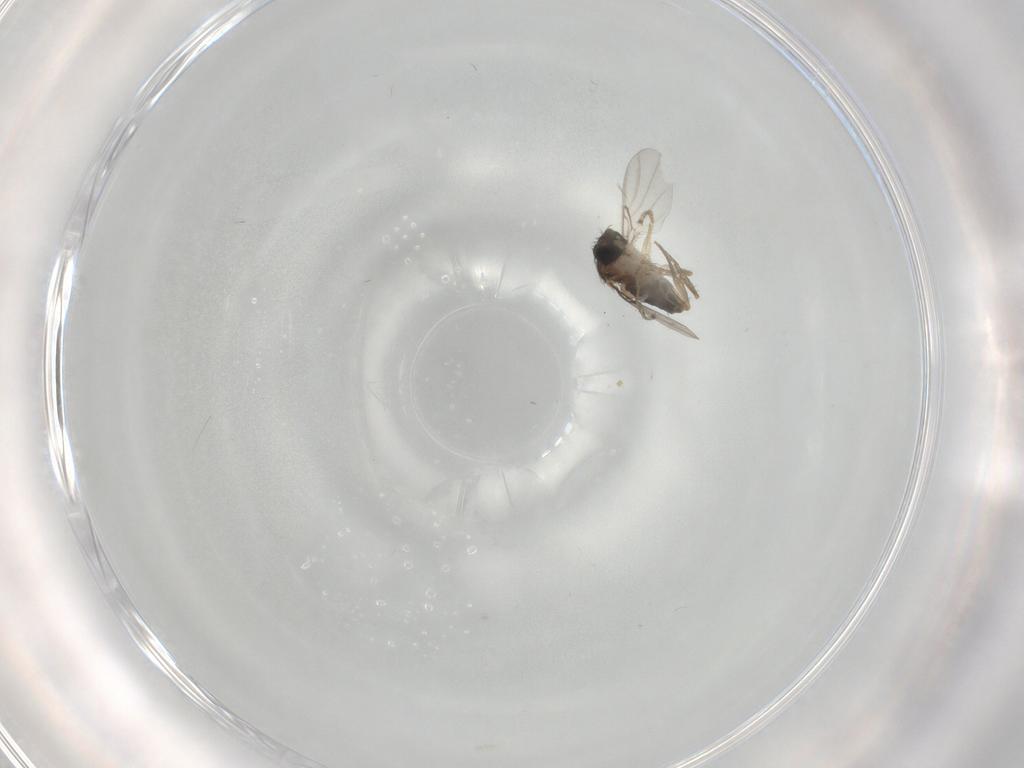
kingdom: Animalia
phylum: Arthropoda
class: Insecta
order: Diptera
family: Phoridae
